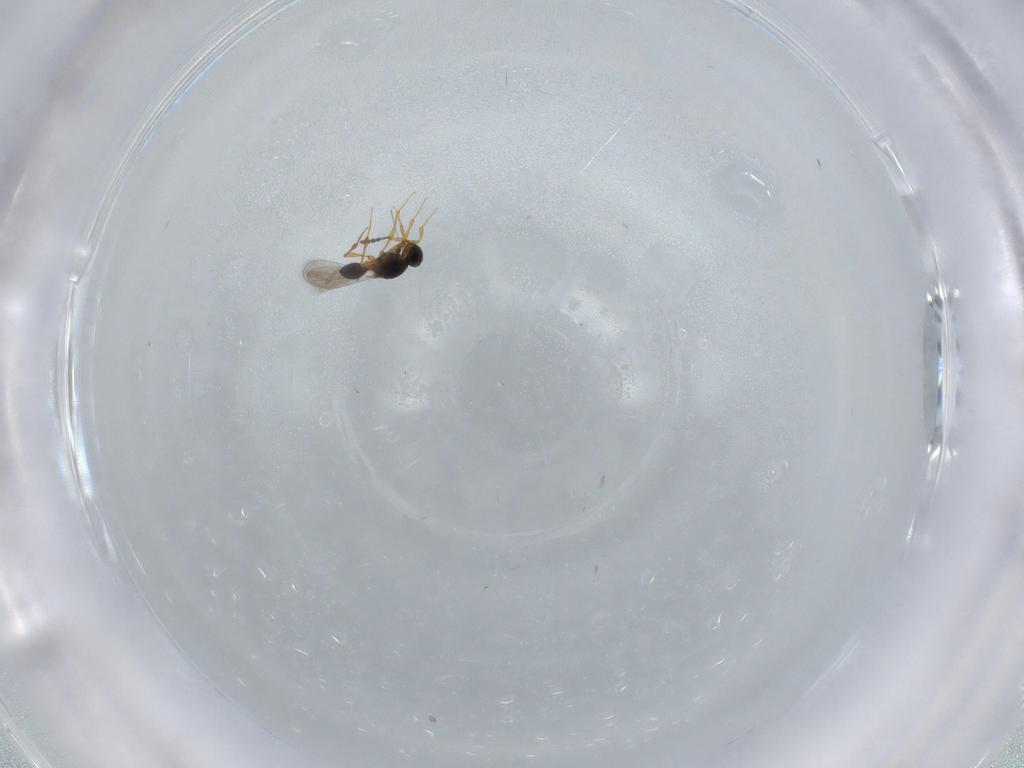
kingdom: Animalia
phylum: Arthropoda
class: Insecta
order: Hymenoptera
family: Platygastridae
